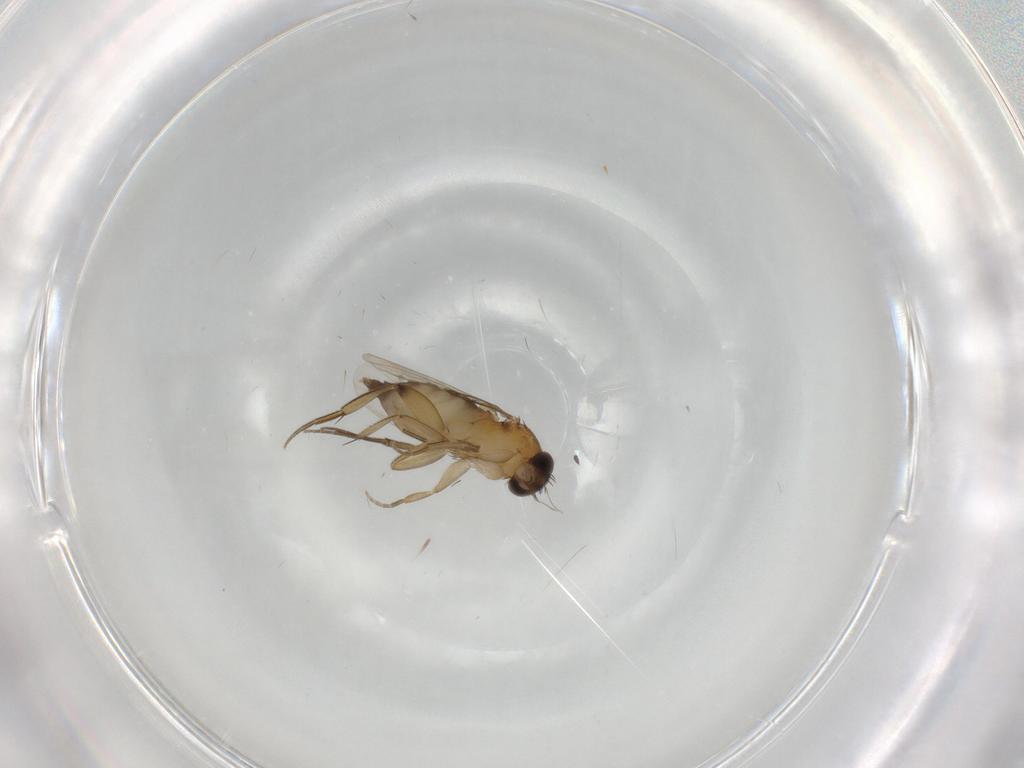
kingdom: Animalia
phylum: Arthropoda
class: Insecta
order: Diptera
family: Phoridae
